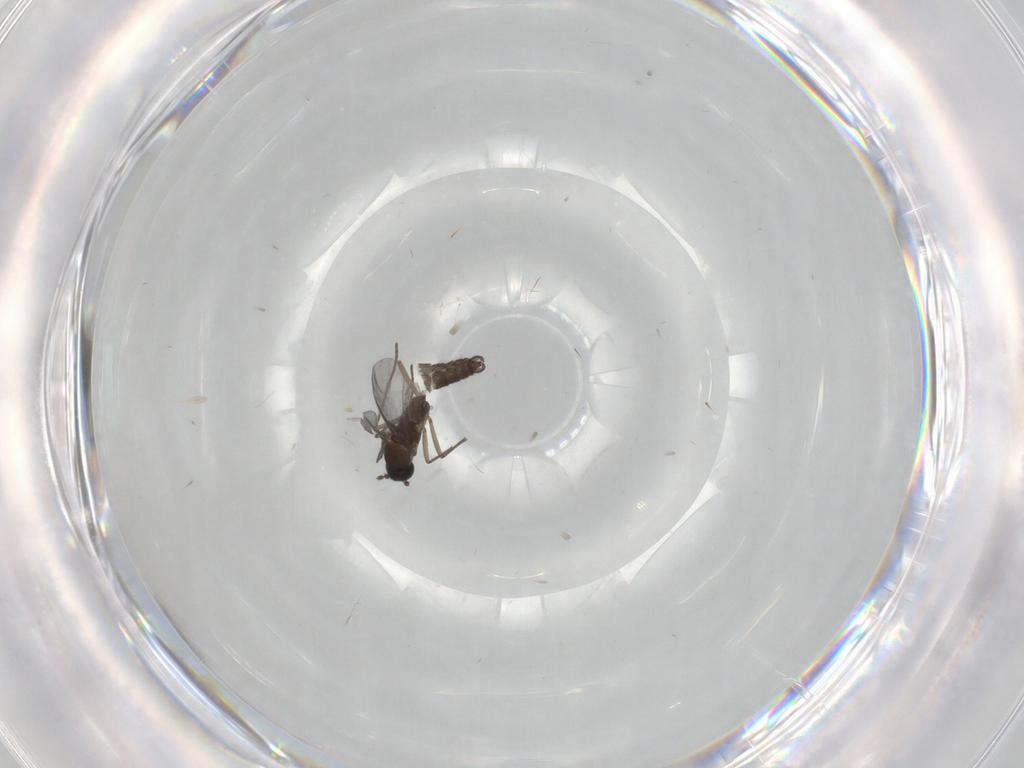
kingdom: Animalia
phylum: Arthropoda
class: Insecta
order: Diptera
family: Sciaridae
